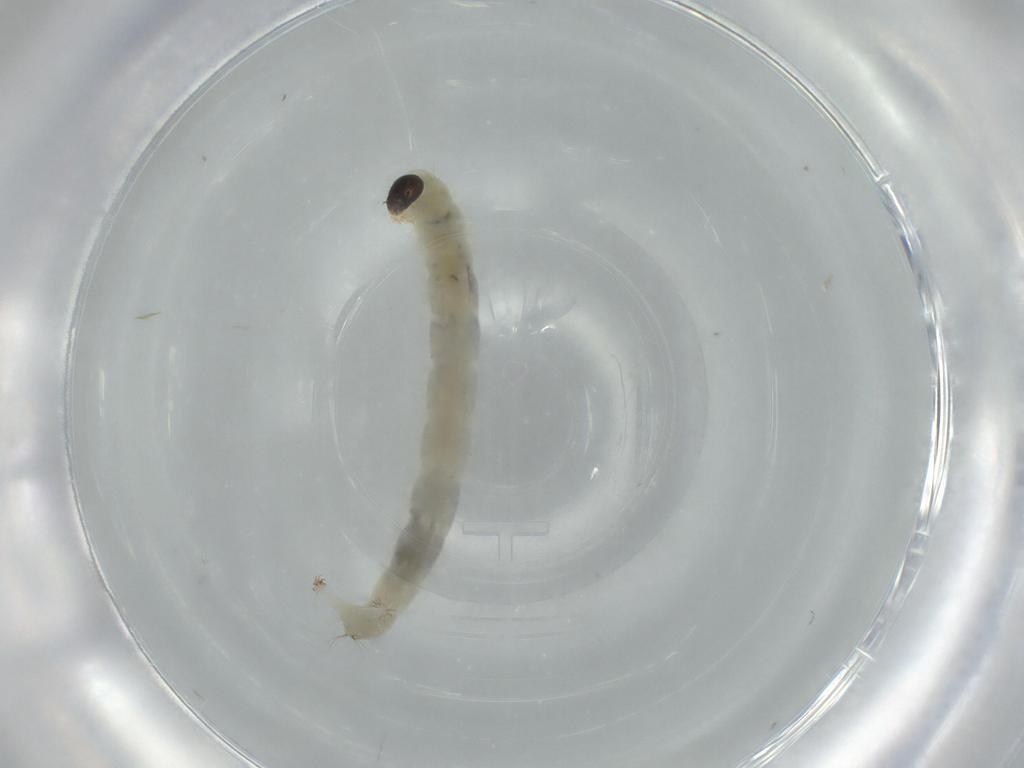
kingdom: Animalia
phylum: Arthropoda
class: Insecta
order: Diptera
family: Chironomidae
